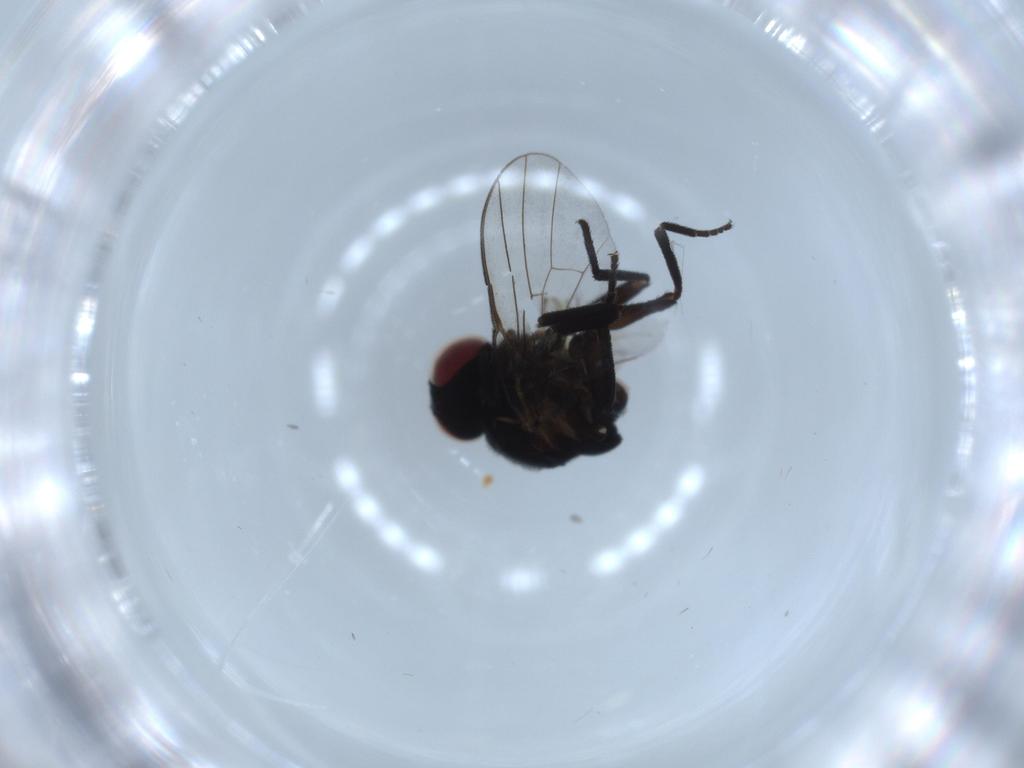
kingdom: Animalia
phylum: Arthropoda
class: Insecta
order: Diptera
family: Agromyzidae
